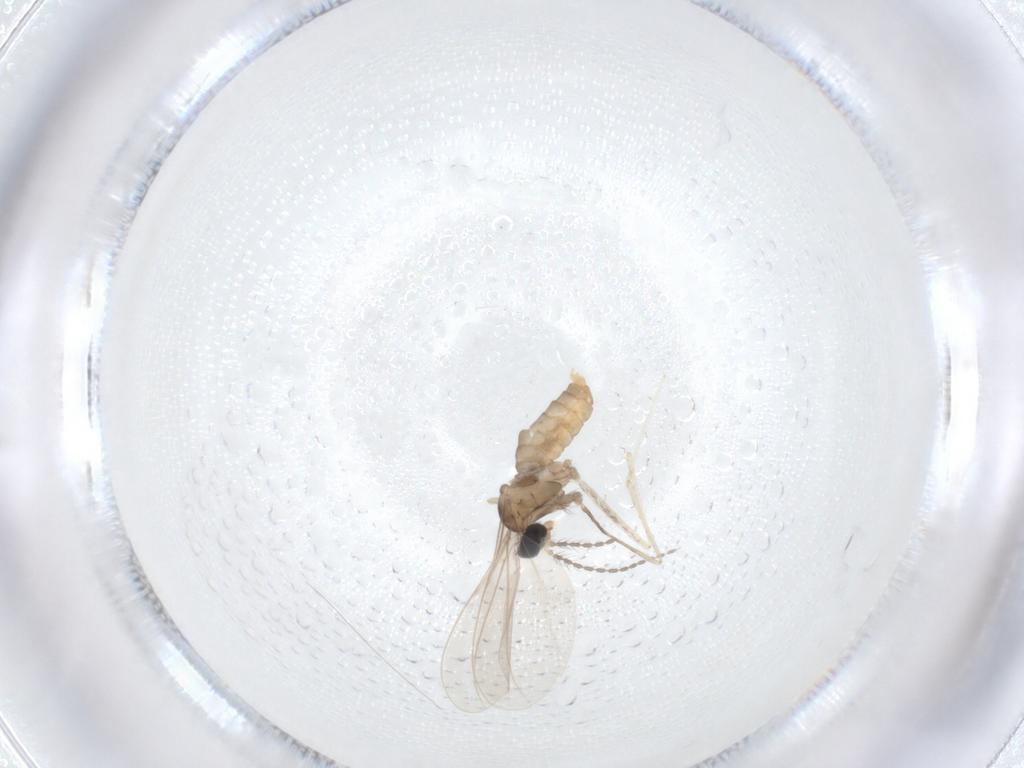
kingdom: Animalia
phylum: Arthropoda
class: Insecta
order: Diptera
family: Cecidomyiidae
